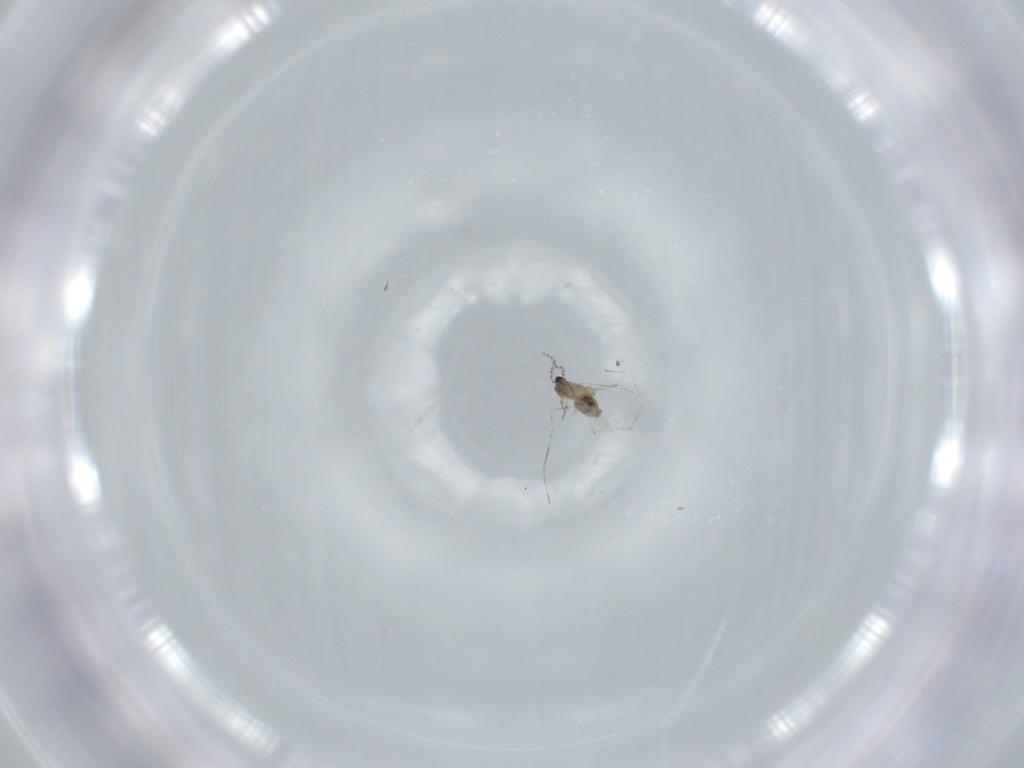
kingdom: Animalia
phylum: Arthropoda
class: Insecta
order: Diptera
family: Cecidomyiidae
